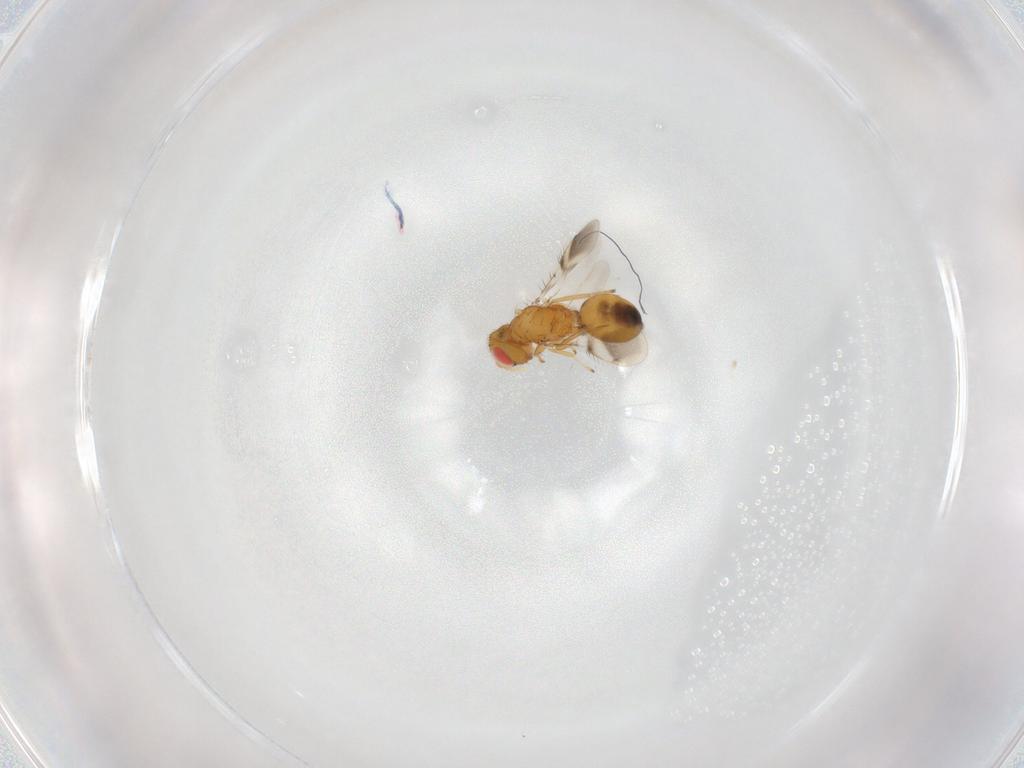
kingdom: Animalia
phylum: Arthropoda
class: Insecta
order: Hymenoptera
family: Eulophidae
